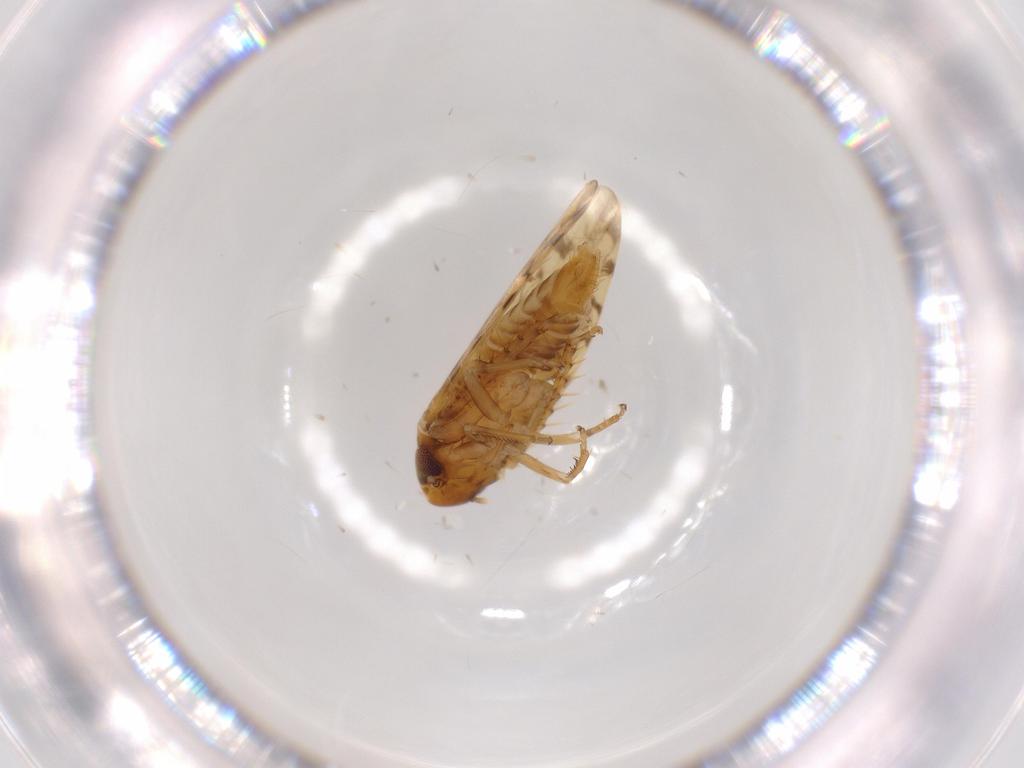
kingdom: Animalia
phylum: Arthropoda
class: Insecta
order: Hemiptera
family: Cicadellidae
